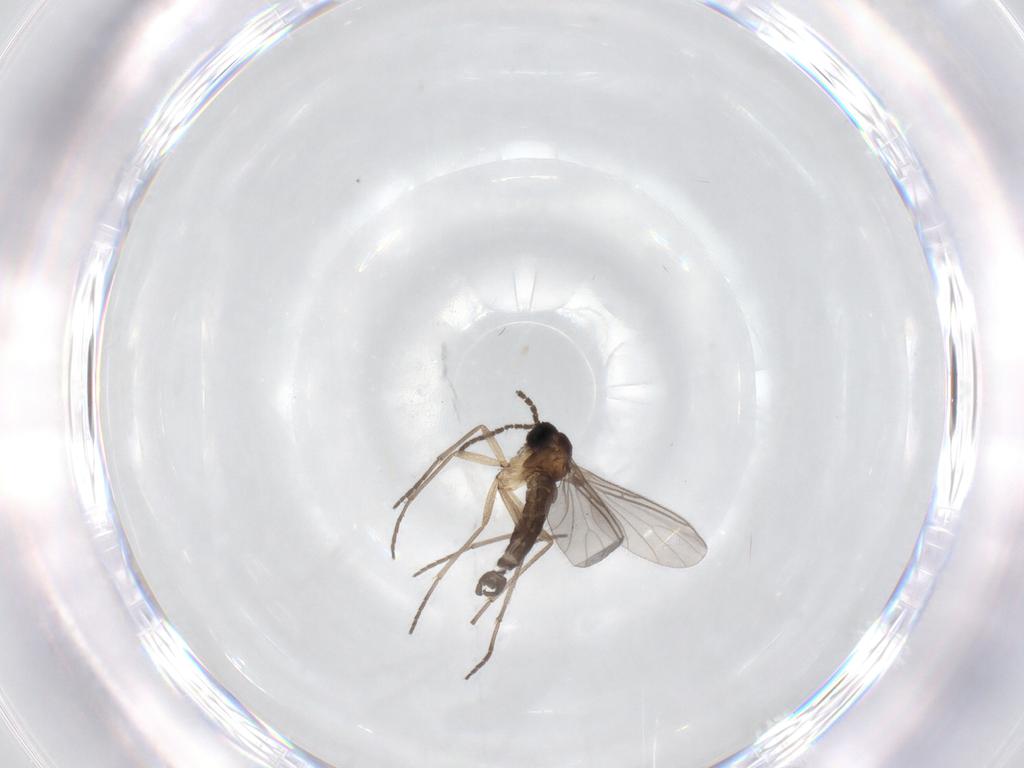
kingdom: Animalia
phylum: Arthropoda
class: Insecta
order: Diptera
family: Sciaridae
